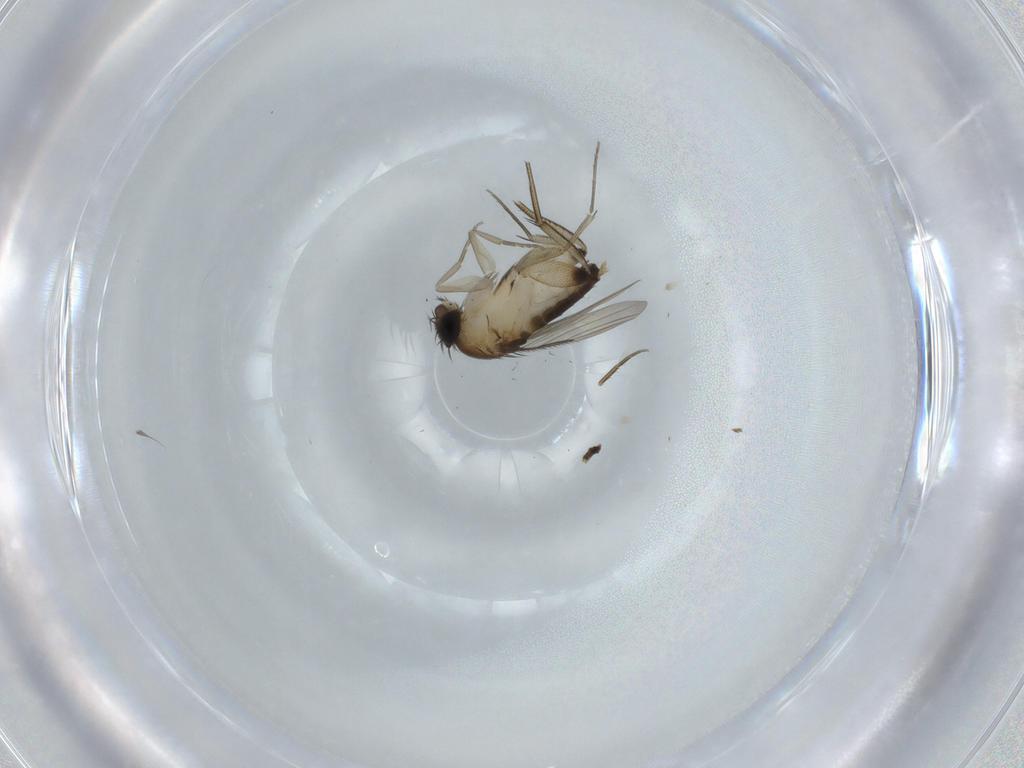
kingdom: Animalia
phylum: Arthropoda
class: Insecta
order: Diptera
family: Phoridae
